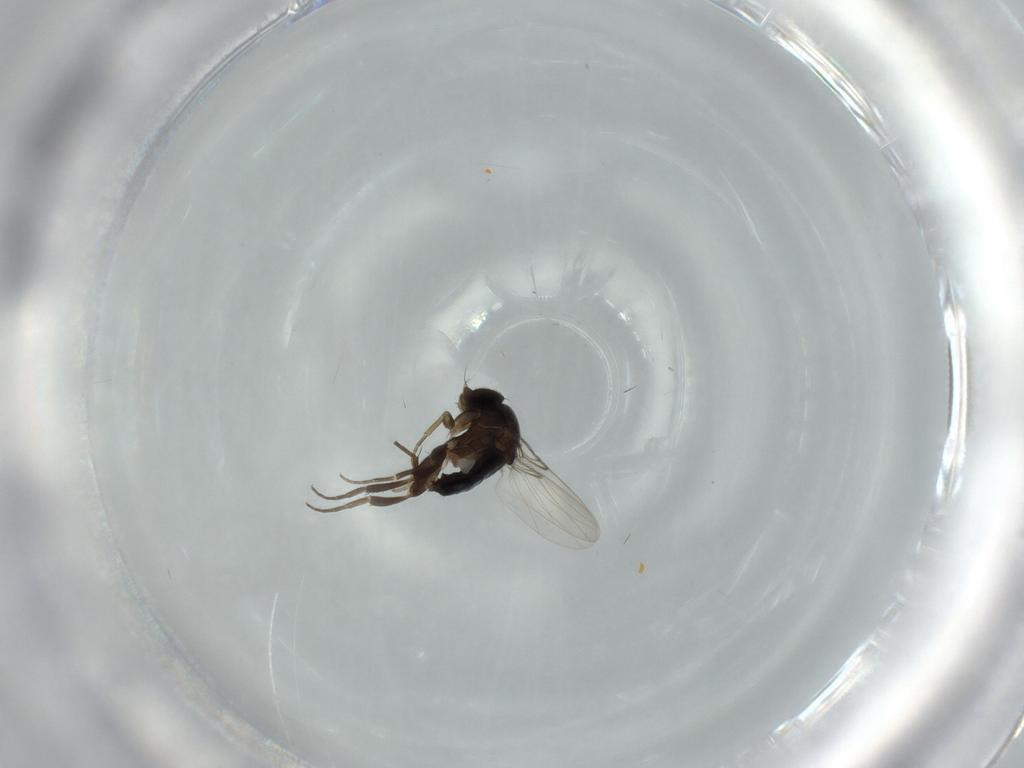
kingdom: Animalia
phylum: Arthropoda
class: Insecta
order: Diptera
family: Phoridae
